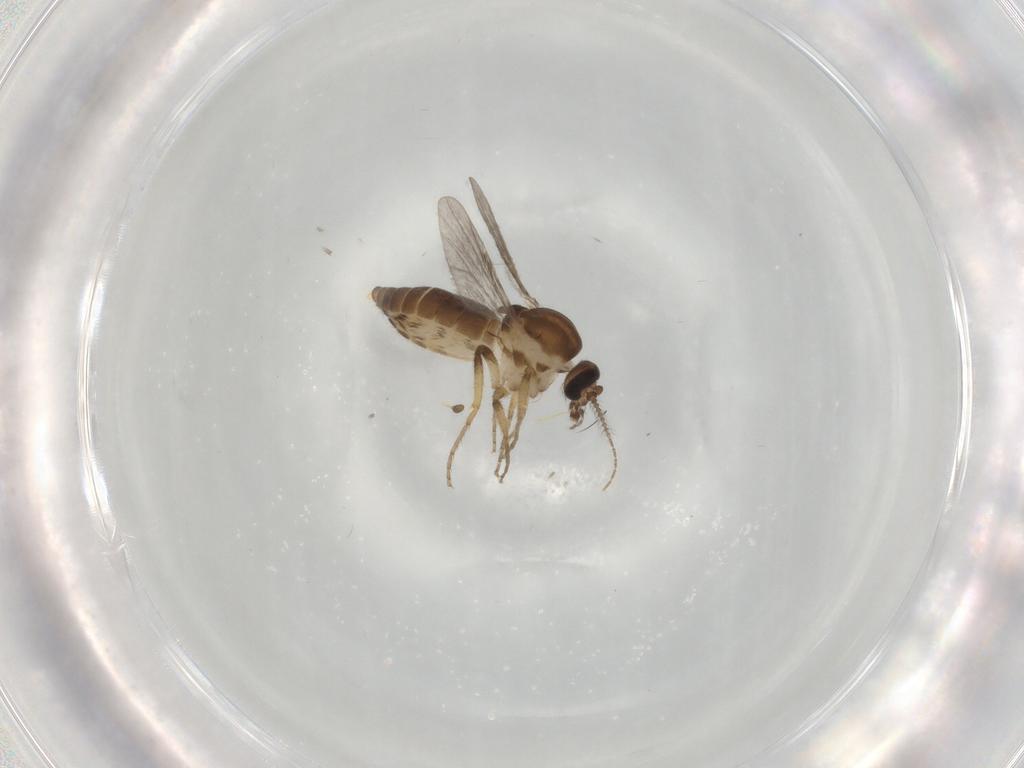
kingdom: Animalia
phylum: Arthropoda
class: Insecta
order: Diptera
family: Ceratopogonidae
